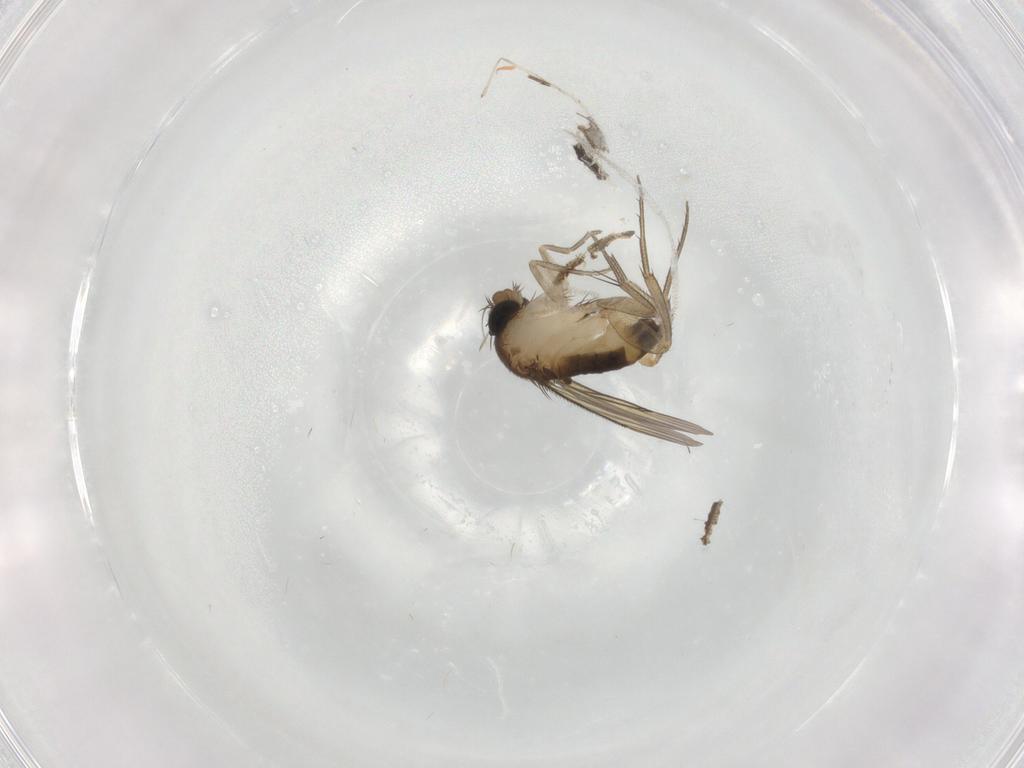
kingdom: Animalia
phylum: Arthropoda
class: Insecta
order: Diptera
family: Cecidomyiidae
